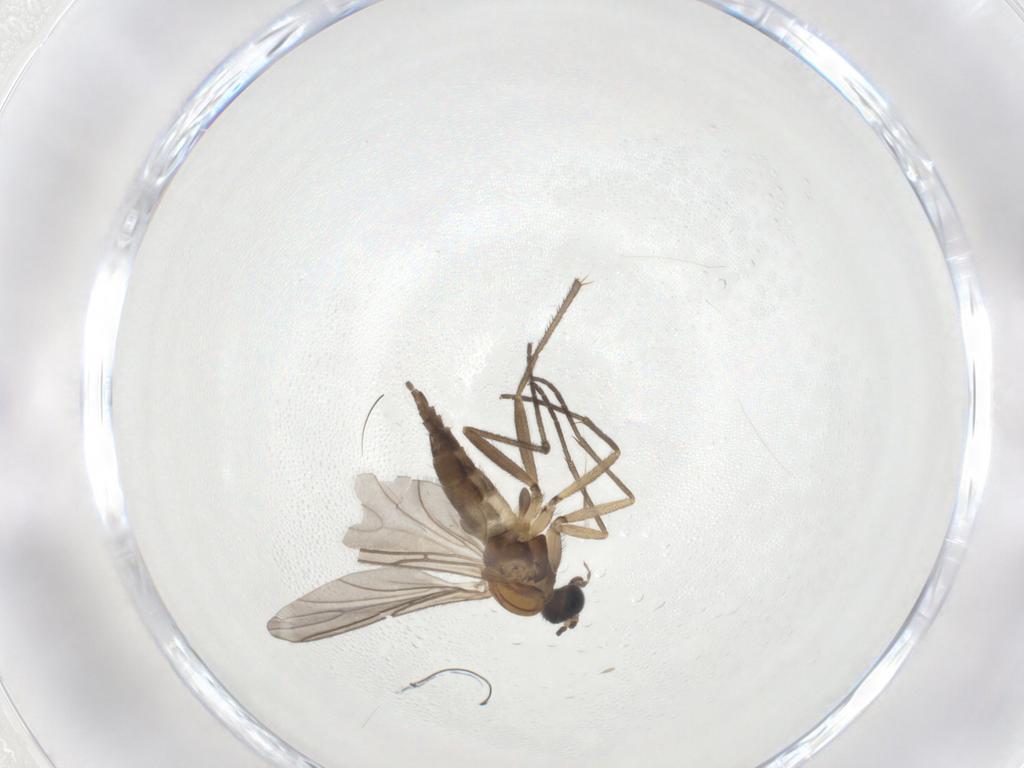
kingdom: Animalia
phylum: Arthropoda
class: Insecta
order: Diptera
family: Sciaridae
